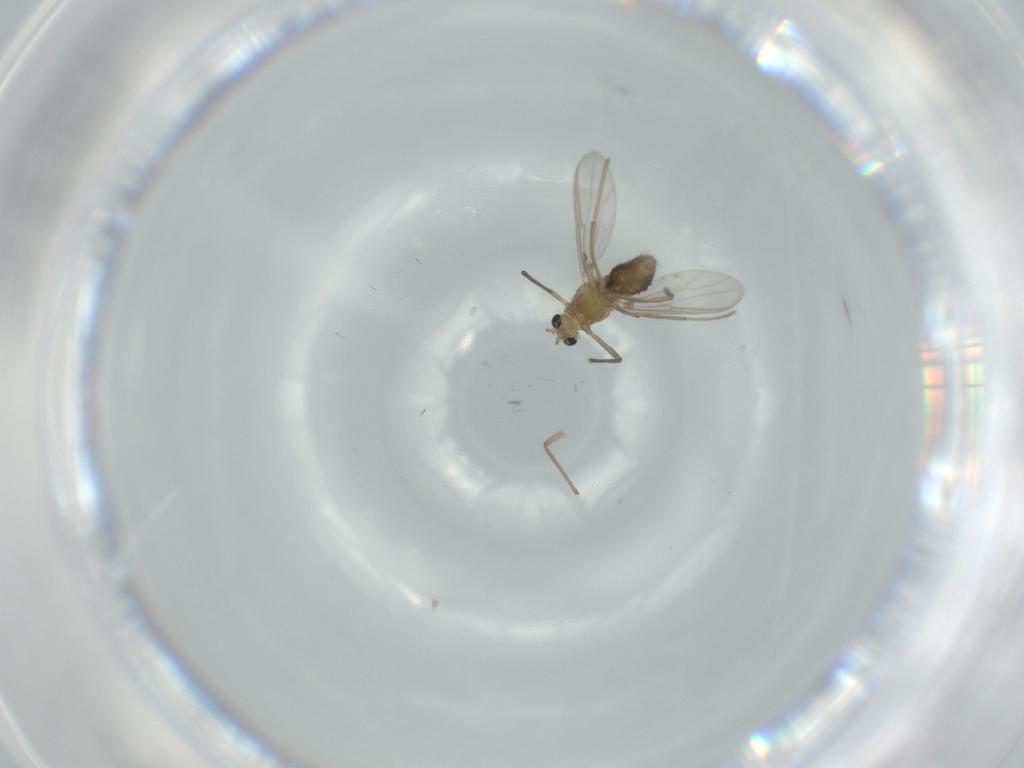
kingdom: Animalia
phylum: Arthropoda
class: Insecta
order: Diptera
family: Chironomidae
